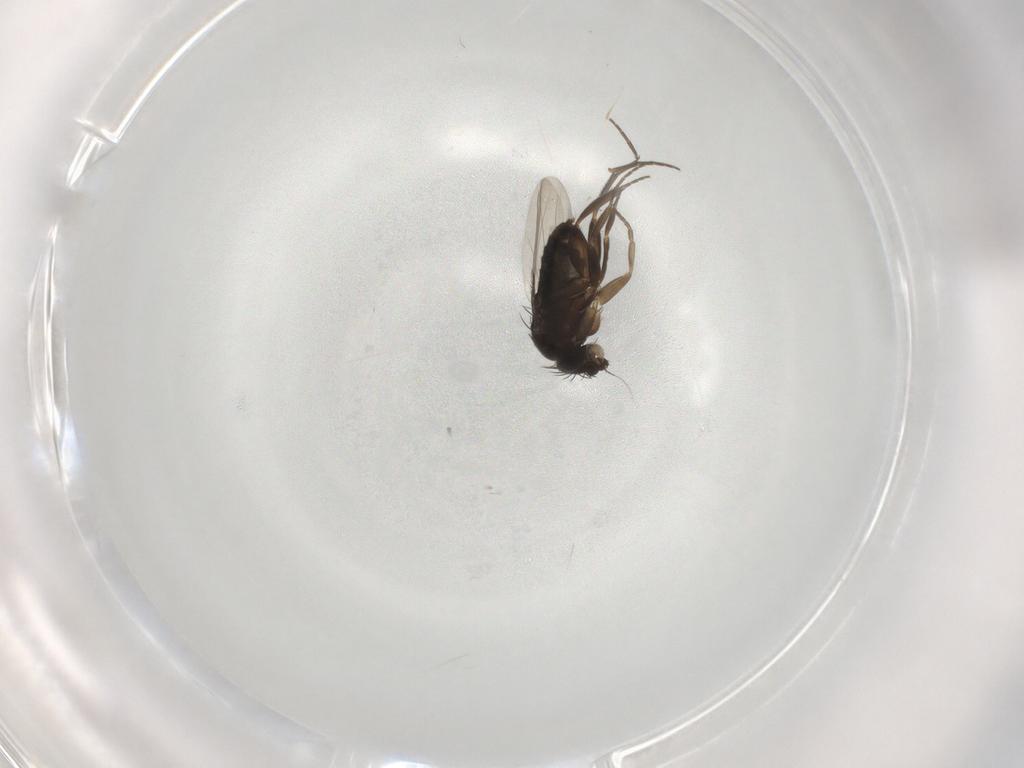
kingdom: Animalia
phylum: Arthropoda
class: Insecta
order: Diptera
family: Phoridae
